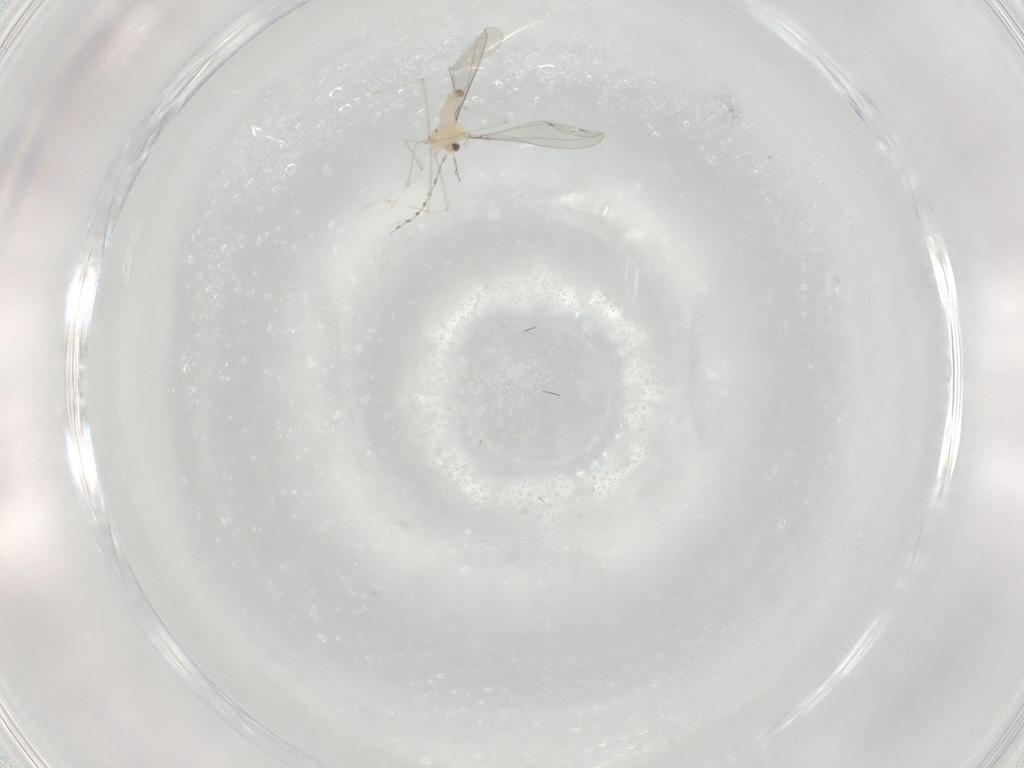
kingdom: Animalia
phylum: Arthropoda
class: Insecta
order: Diptera
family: Cecidomyiidae
